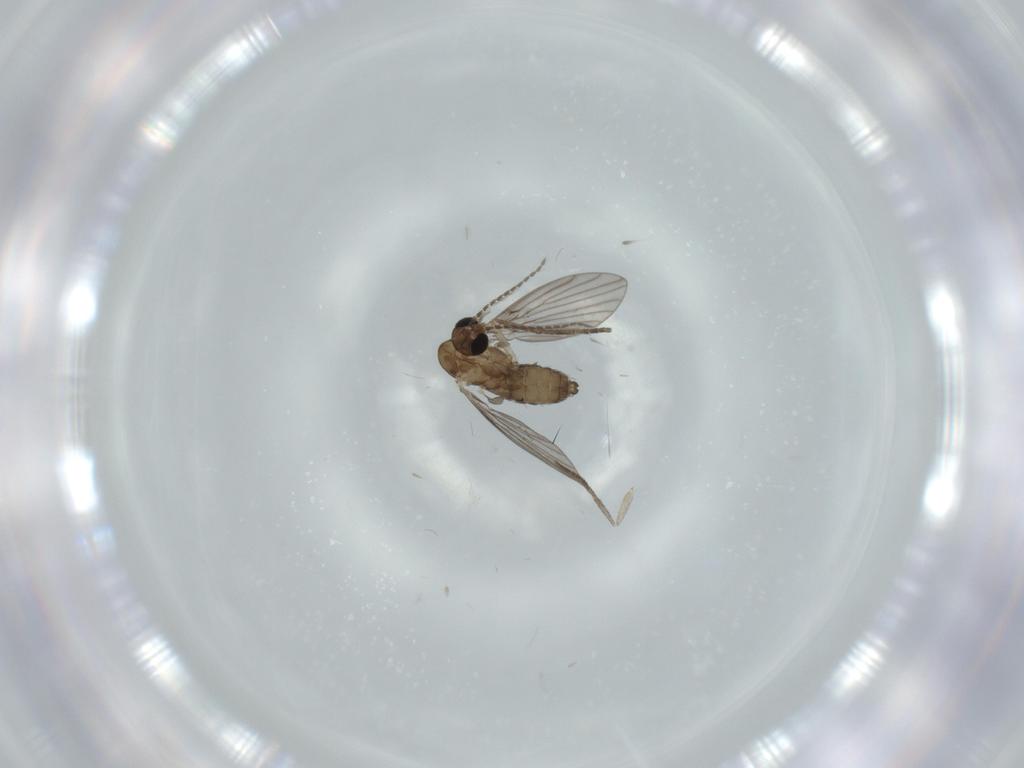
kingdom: Animalia
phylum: Arthropoda
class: Insecta
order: Diptera
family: Psychodidae
